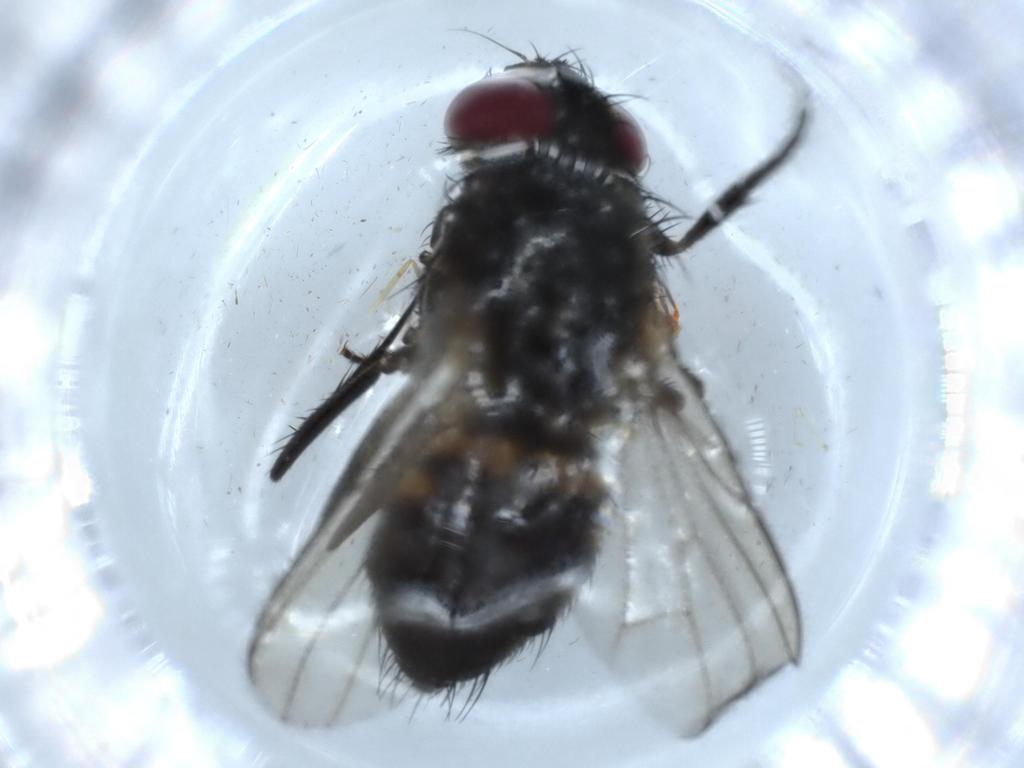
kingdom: Animalia
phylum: Arthropoda
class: Insecta
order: Diptera
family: Fannia
